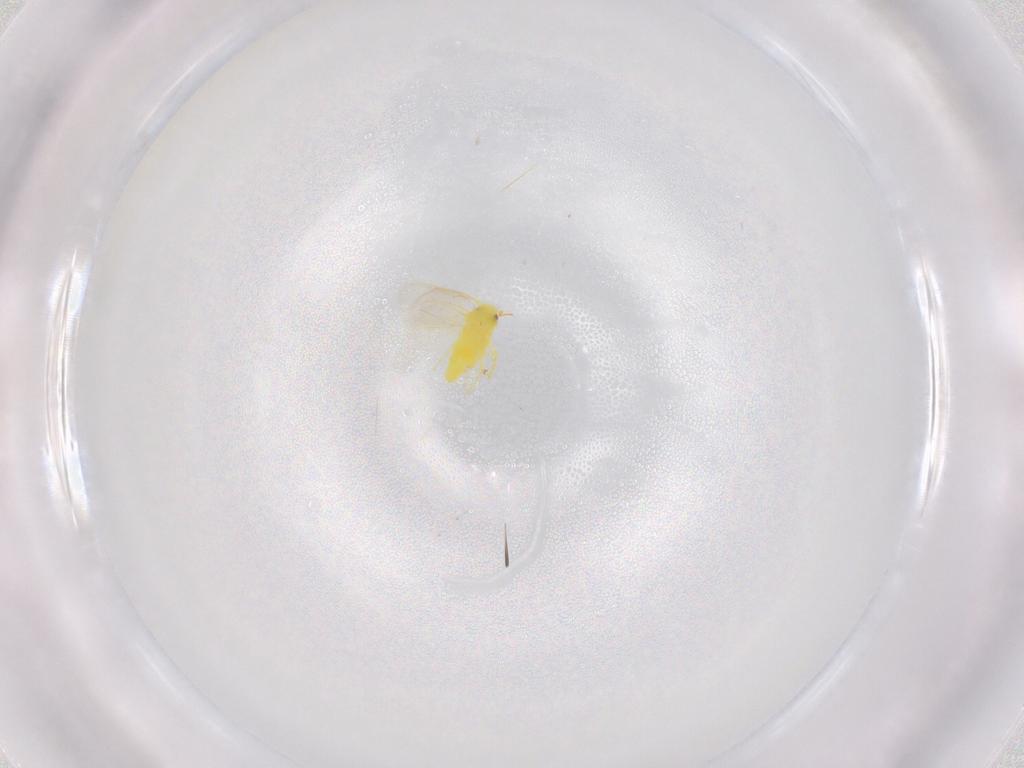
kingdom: Animalia
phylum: Arthropoda
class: Insecta
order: Hemiptera
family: Aleyrodidae
